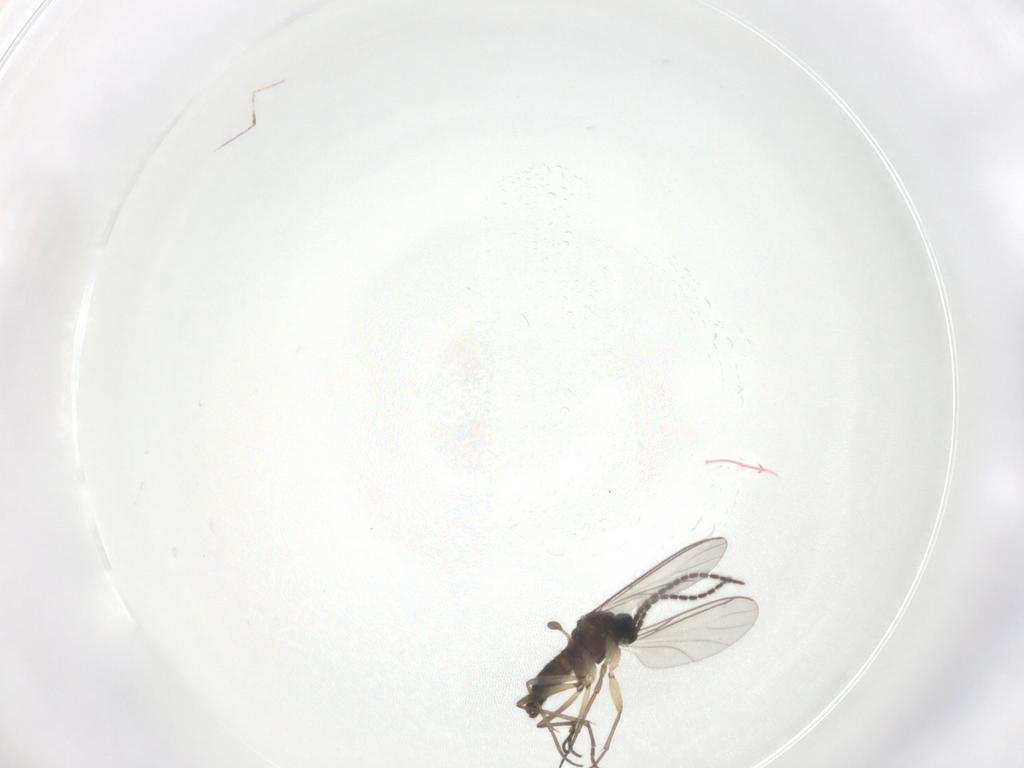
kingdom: Animalia
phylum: Arthropoda
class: Insecta
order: Diptera
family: Sciaridae
